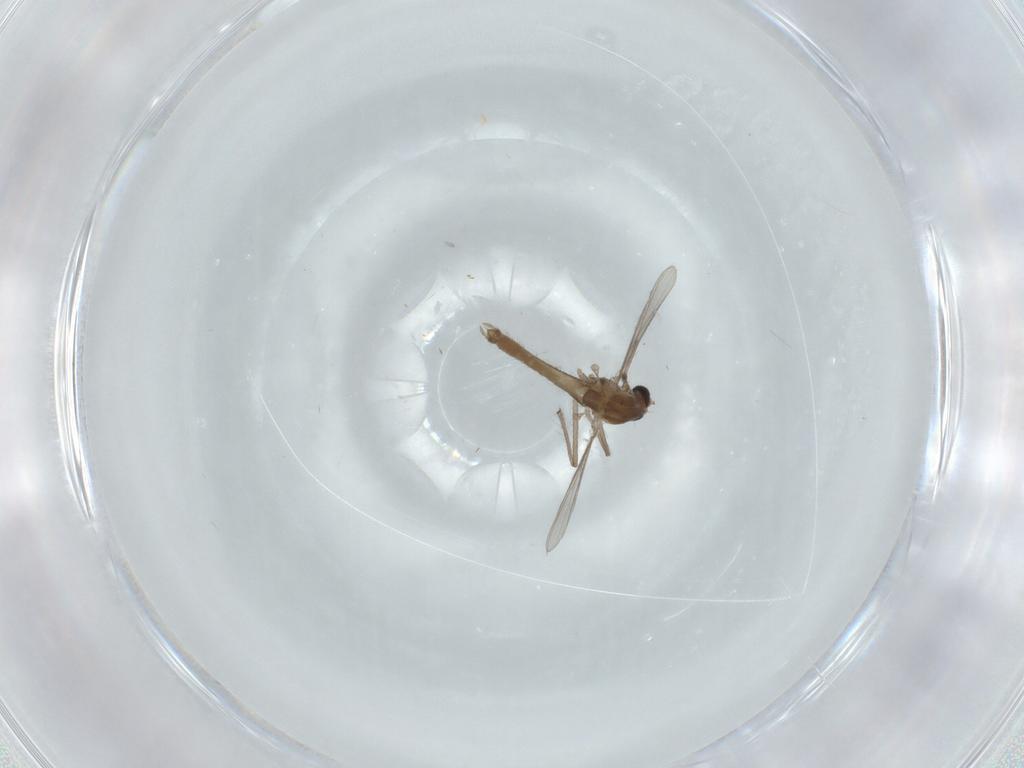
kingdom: Animalia
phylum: Arthropoda
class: Insecta
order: Diptera
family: Chironomidae
